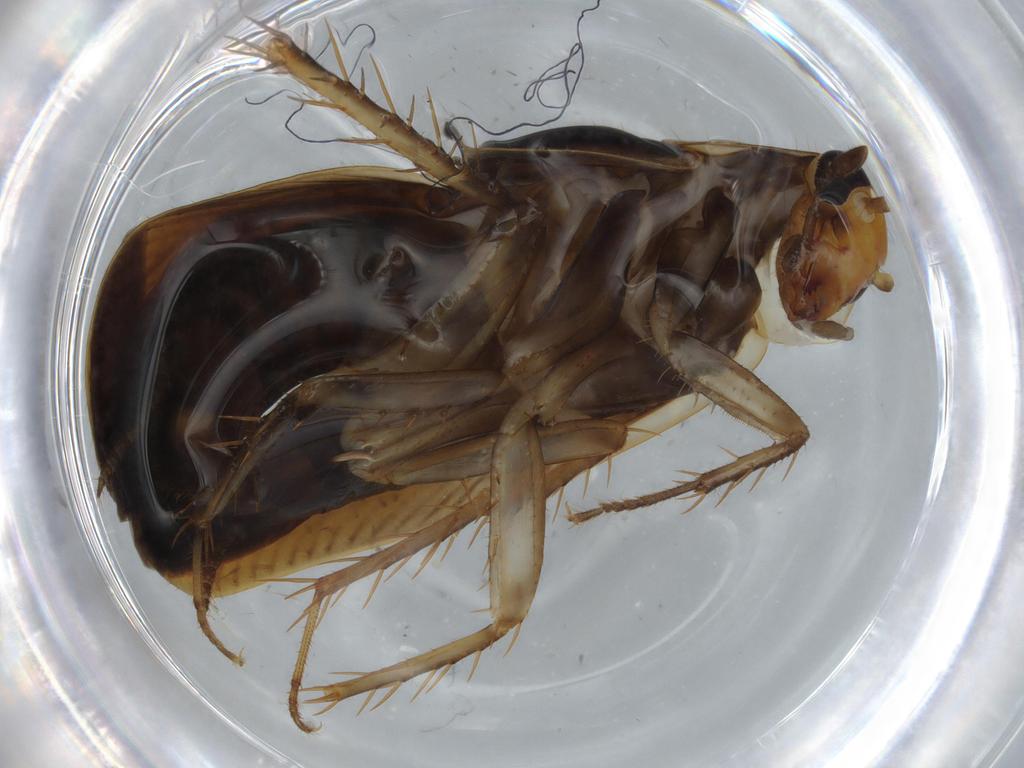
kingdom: Animalia
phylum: Arthropoda
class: Insecta
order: Blattodea
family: Ectobiidae
